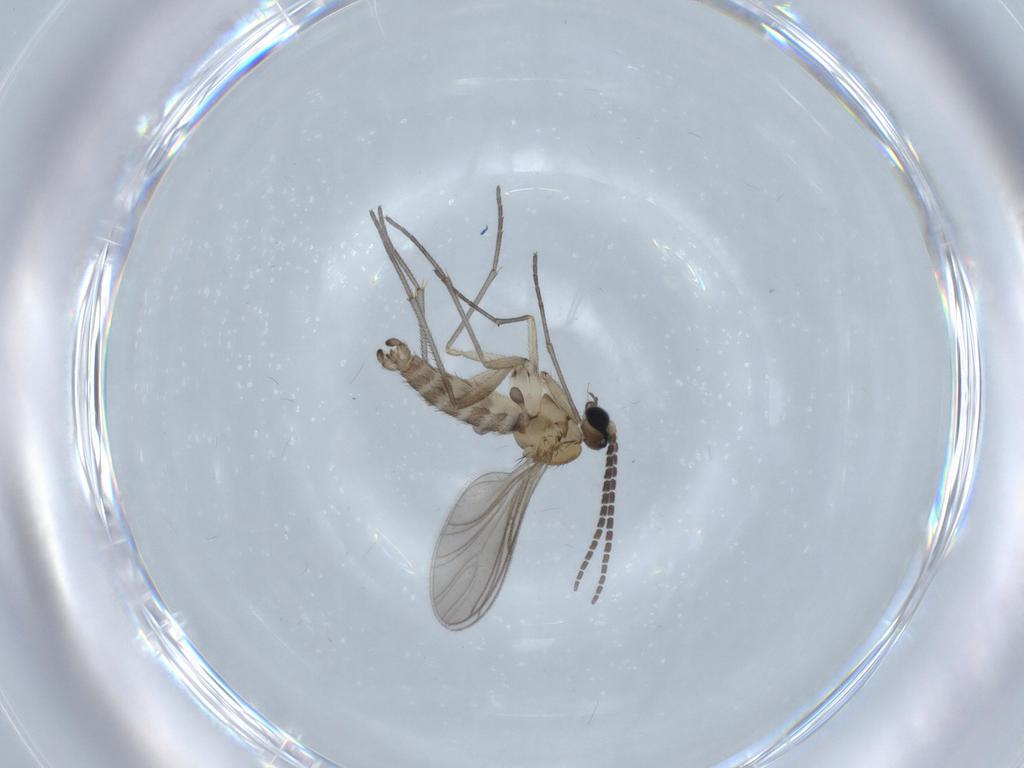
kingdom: Animalia
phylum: Arthropoda
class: Insecta
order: Diptera
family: Sciaridae
